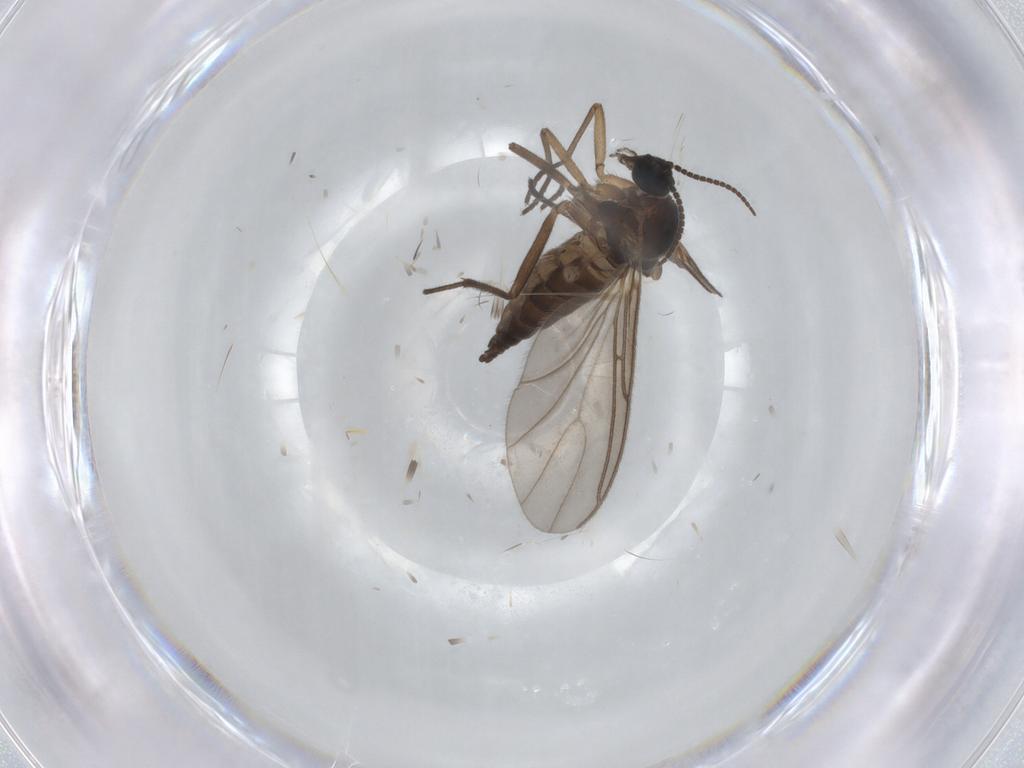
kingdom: Animalia
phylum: Arthropoda
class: Insecta
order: Diptera
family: Sciaridae
